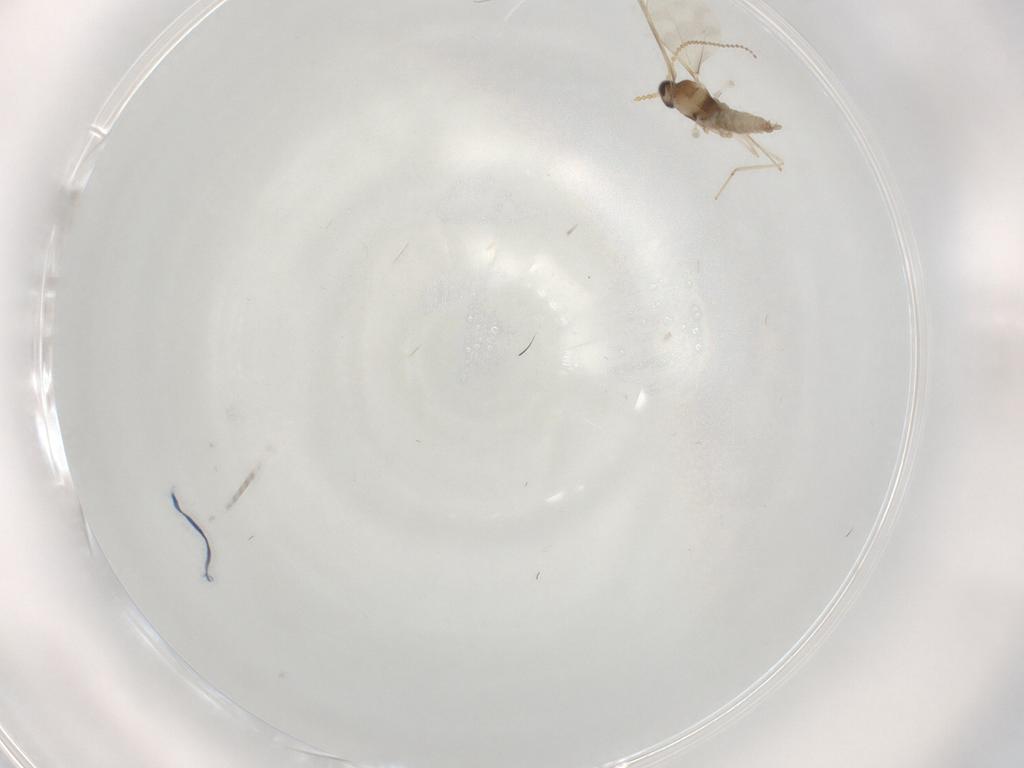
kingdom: Animalia
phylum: Arthropoda
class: Insecta
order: Diptera
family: Cecidomyiidae
